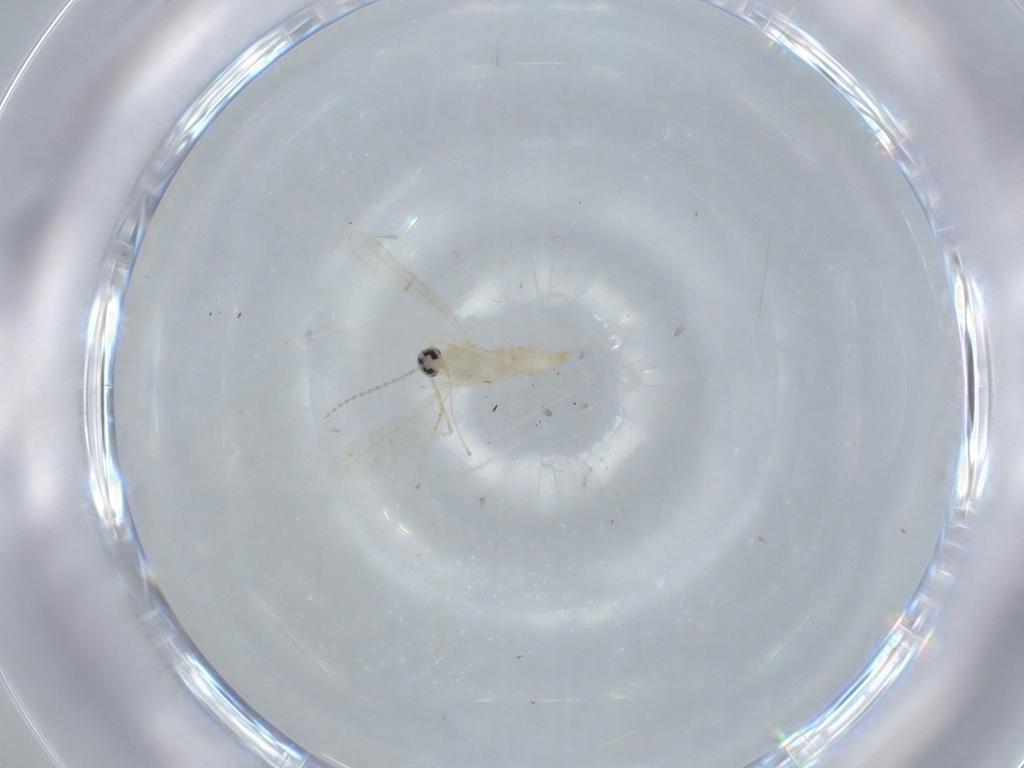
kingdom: Animalia
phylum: Arthropoda
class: Insecta
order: Diptera
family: Cecidomyiidae
